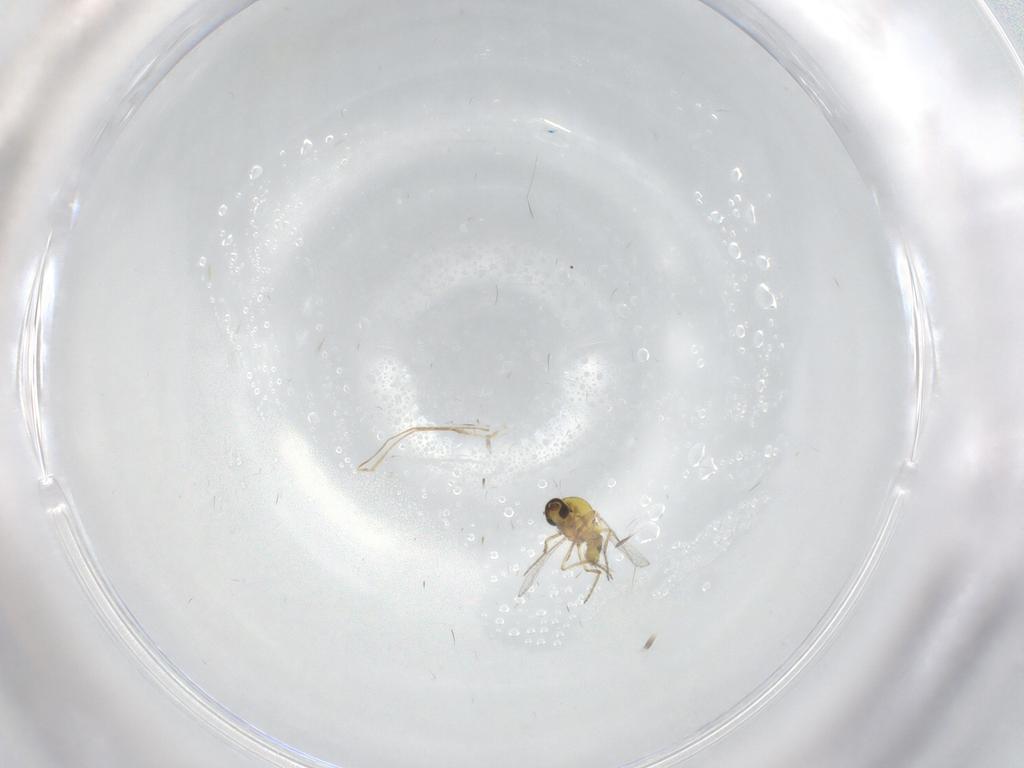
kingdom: Animalia
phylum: Arthropoda
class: Insecta
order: Diptera
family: Ceratopogonidae
